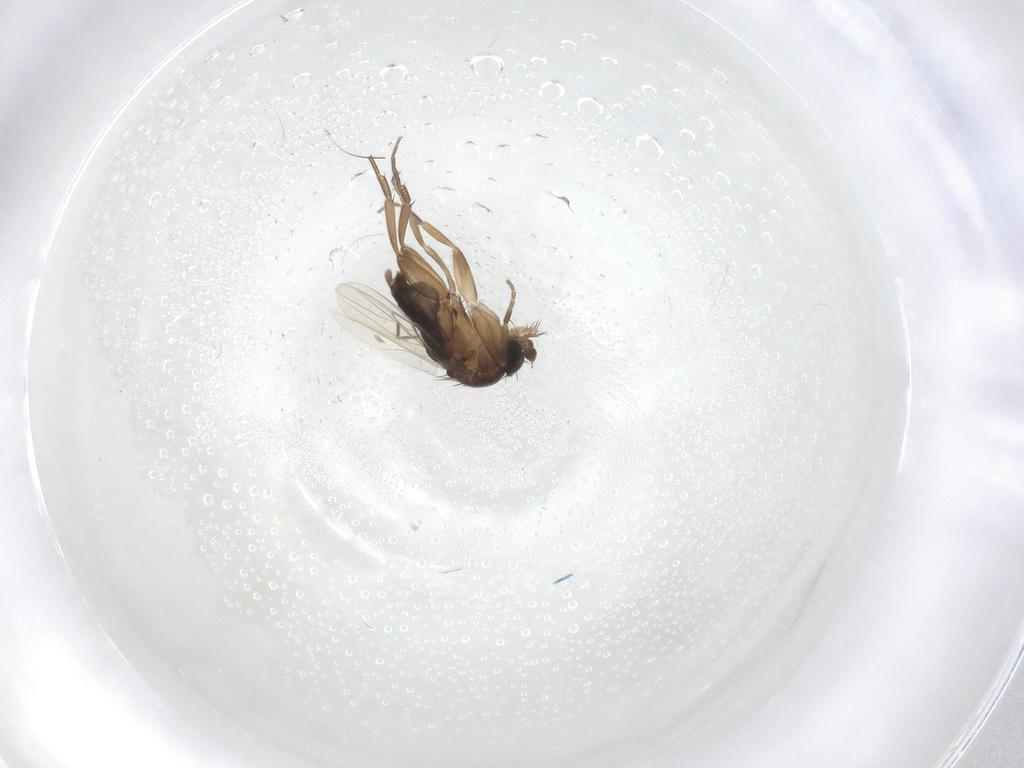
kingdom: Animalia
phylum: Arthropoda
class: Insecta
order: Diptera
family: Phoridae
